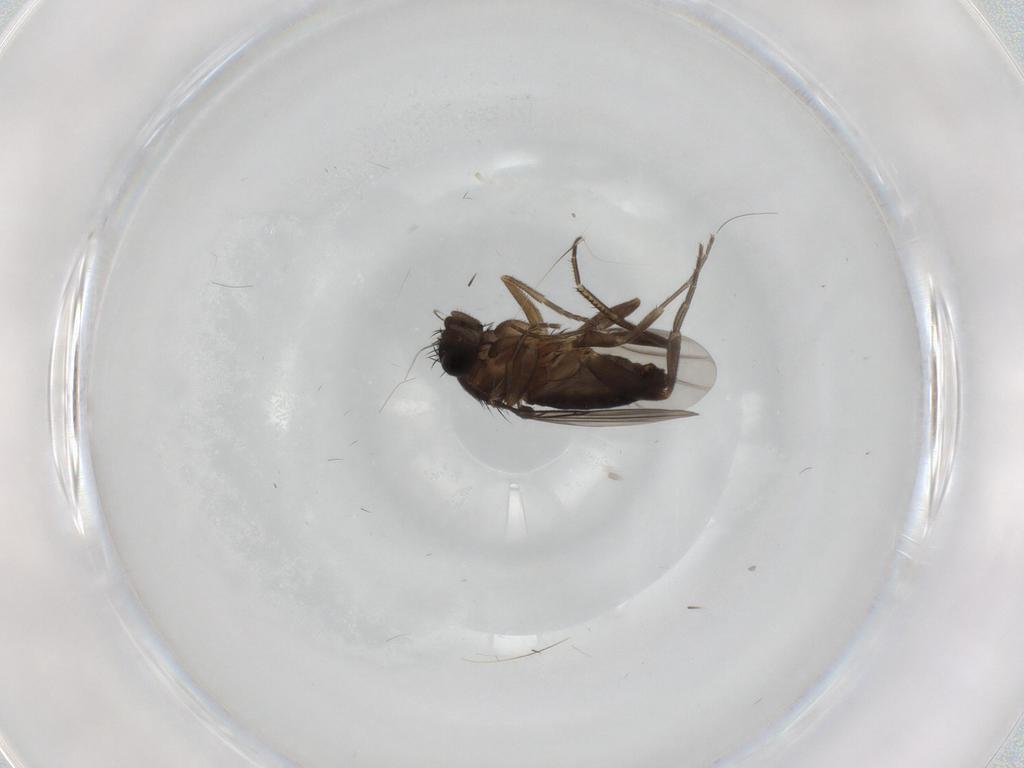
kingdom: Animalia
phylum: Arthropoda
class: Insecta
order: Diptera
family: Phoridae
